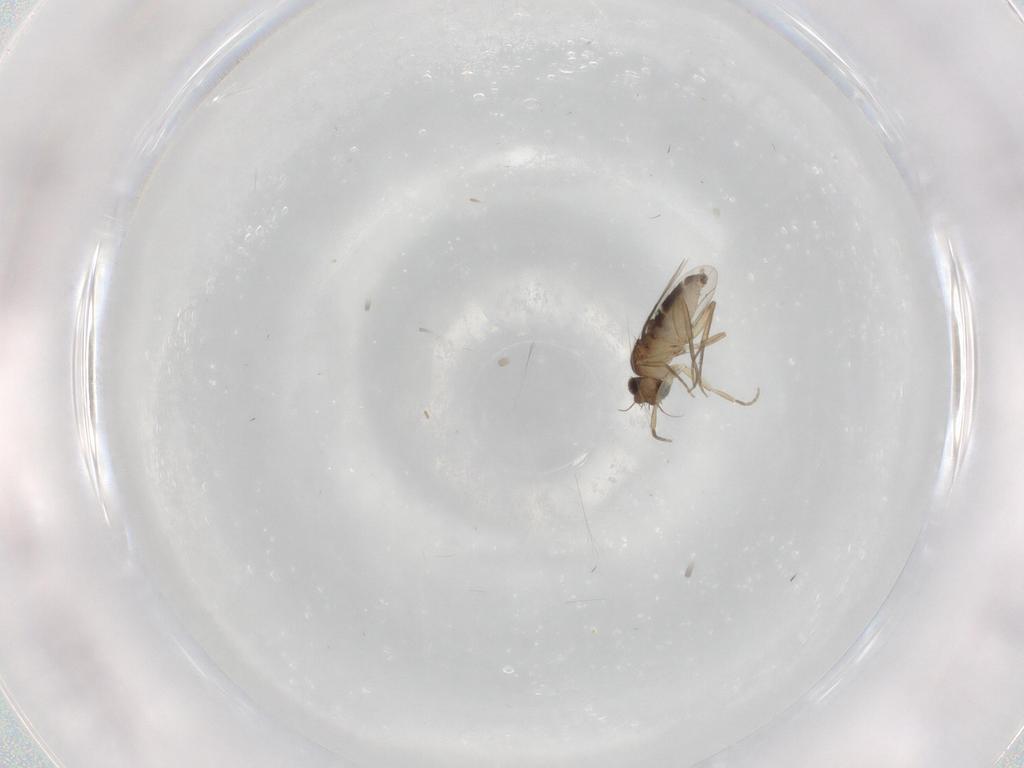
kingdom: Animalia
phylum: Arthropoda
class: Insecta
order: Diptera
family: Phoridae
